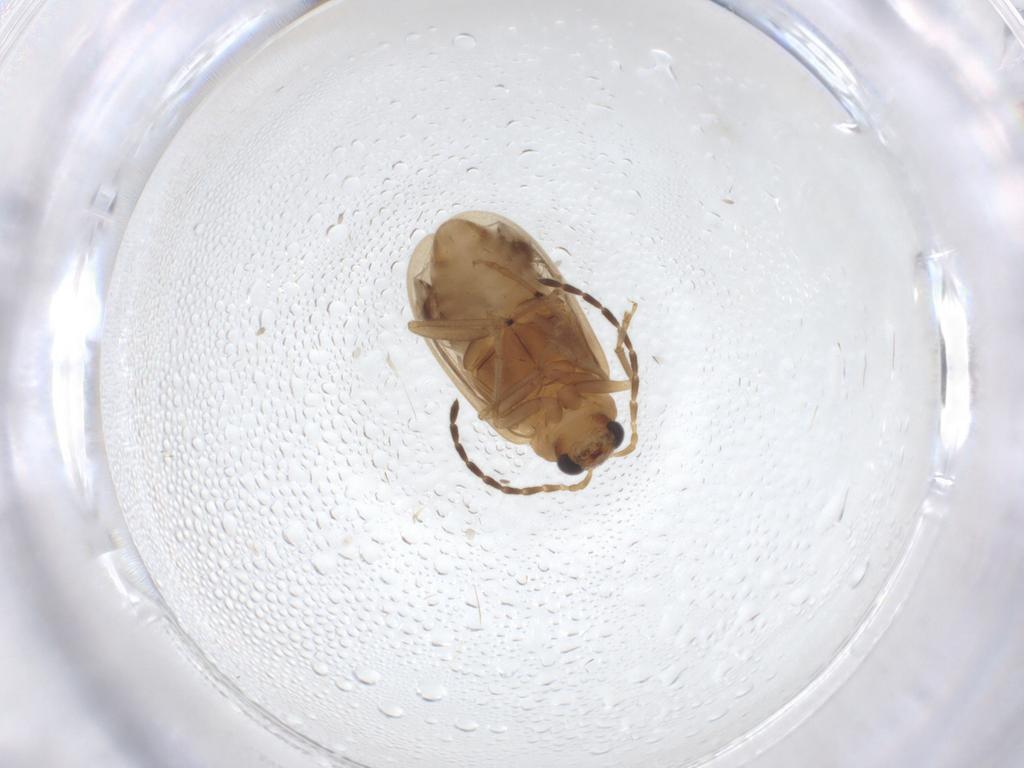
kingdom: Animalia
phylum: Arthropoda
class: Insecta
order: Coleoptera
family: Chrysomelidae
